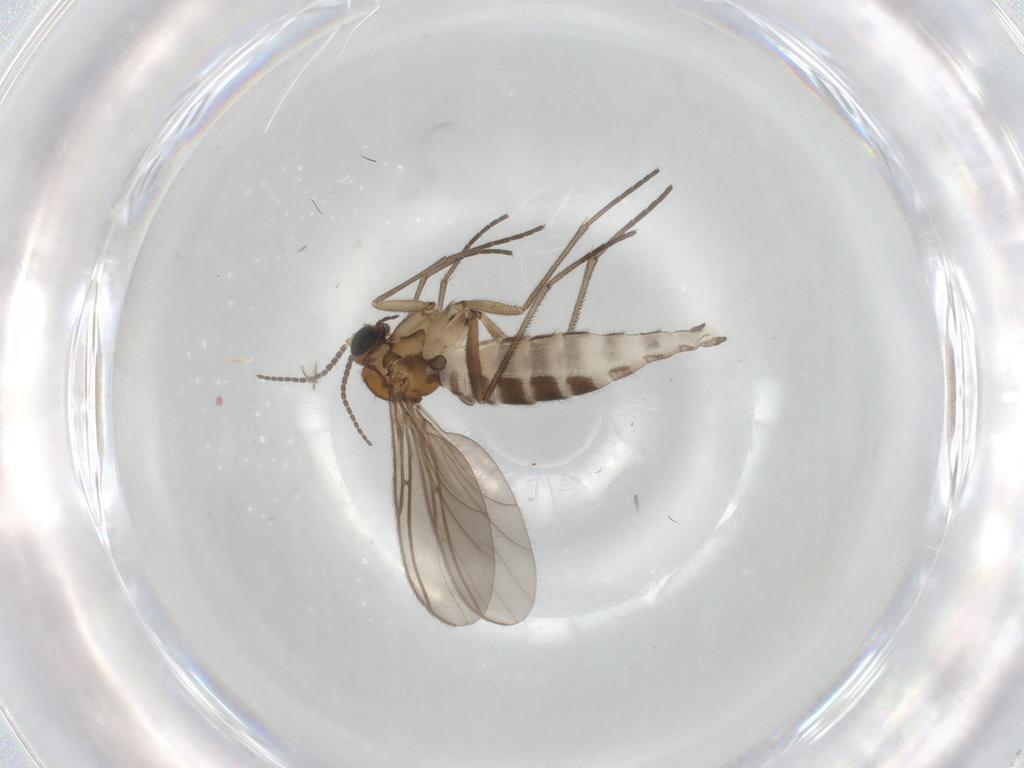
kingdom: Animalia
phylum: Arthropoda
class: Insecta
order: Diptera
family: Sciaridae
